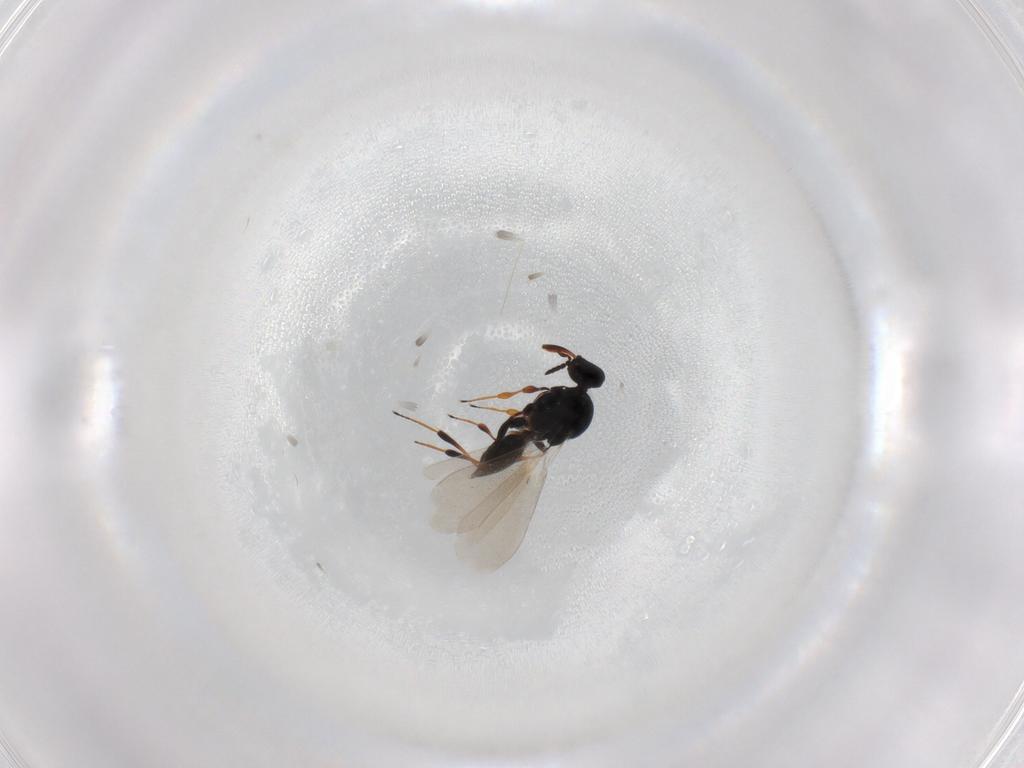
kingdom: Animalia
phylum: Arthropoda
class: Insecta
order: Hymenoptera
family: Platygastridae
